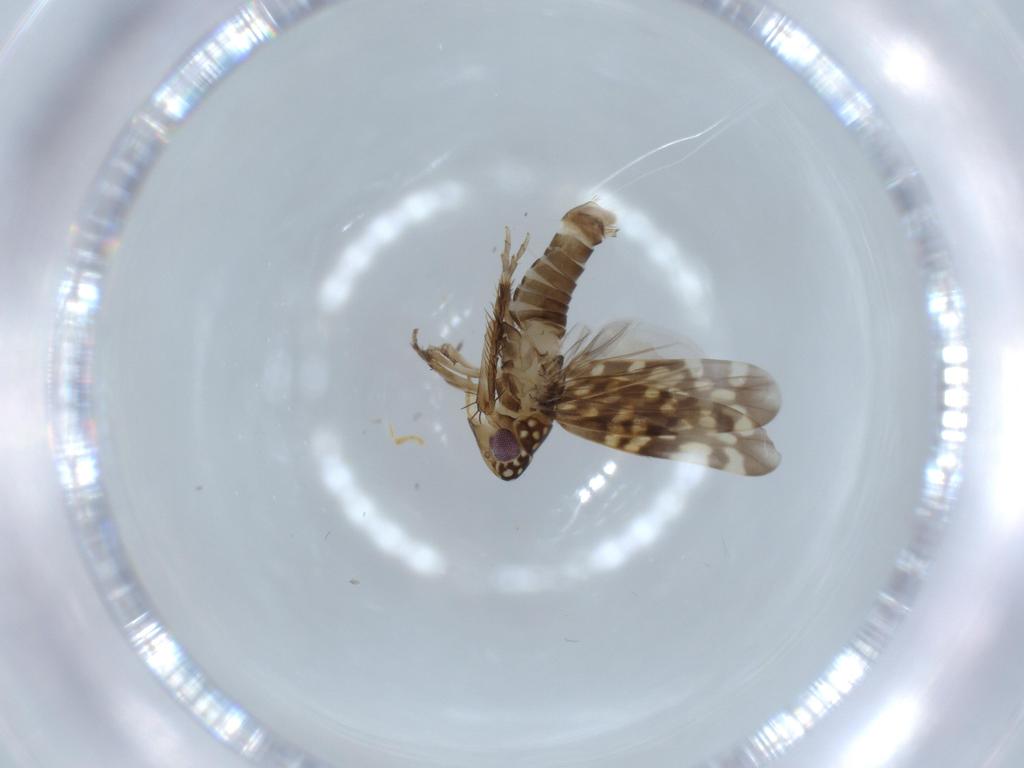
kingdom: Animalia
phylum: Arthropoda
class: Insecta
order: Hemiptera
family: Cicadellidae
